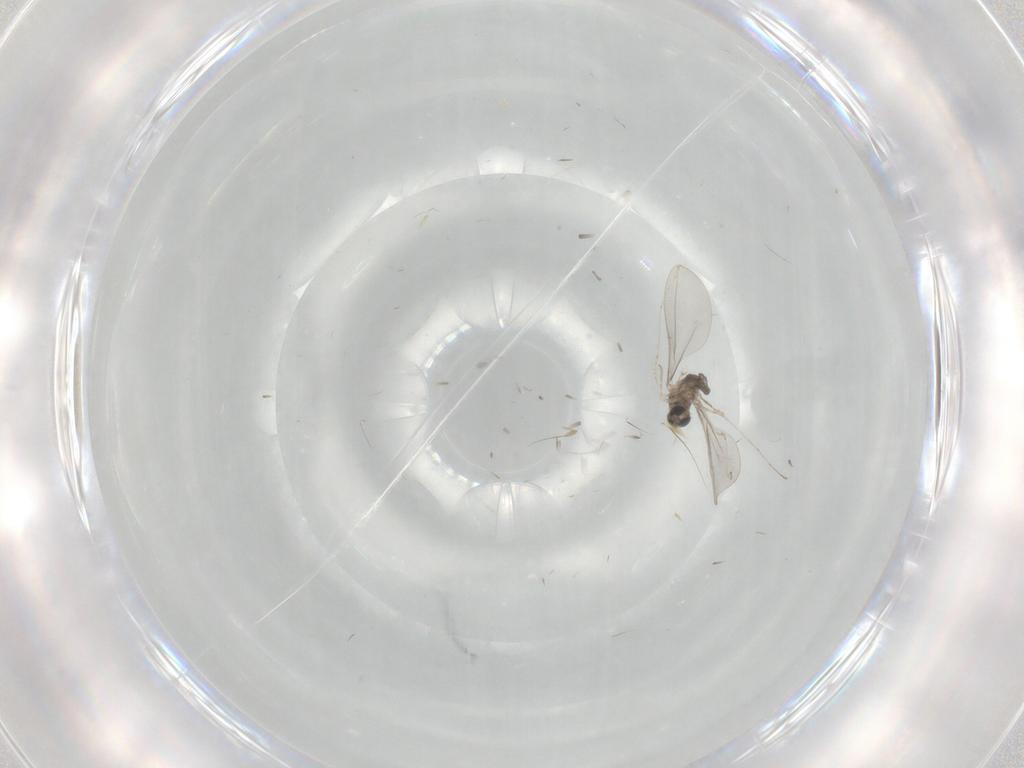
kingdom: Animalia
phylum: Arthropoda
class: Insecta
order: Diptera
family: Cecidomyiidae
